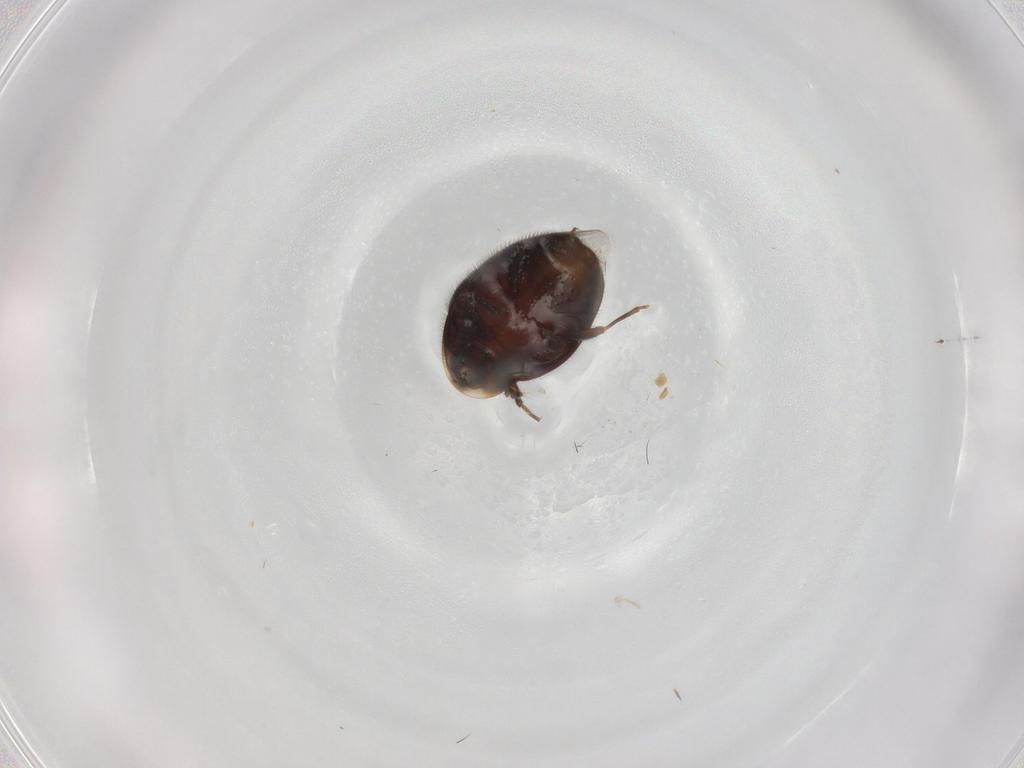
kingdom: Animalia
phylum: Arthropoda
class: Insecta
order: Coleoptera
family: Corylophidae
